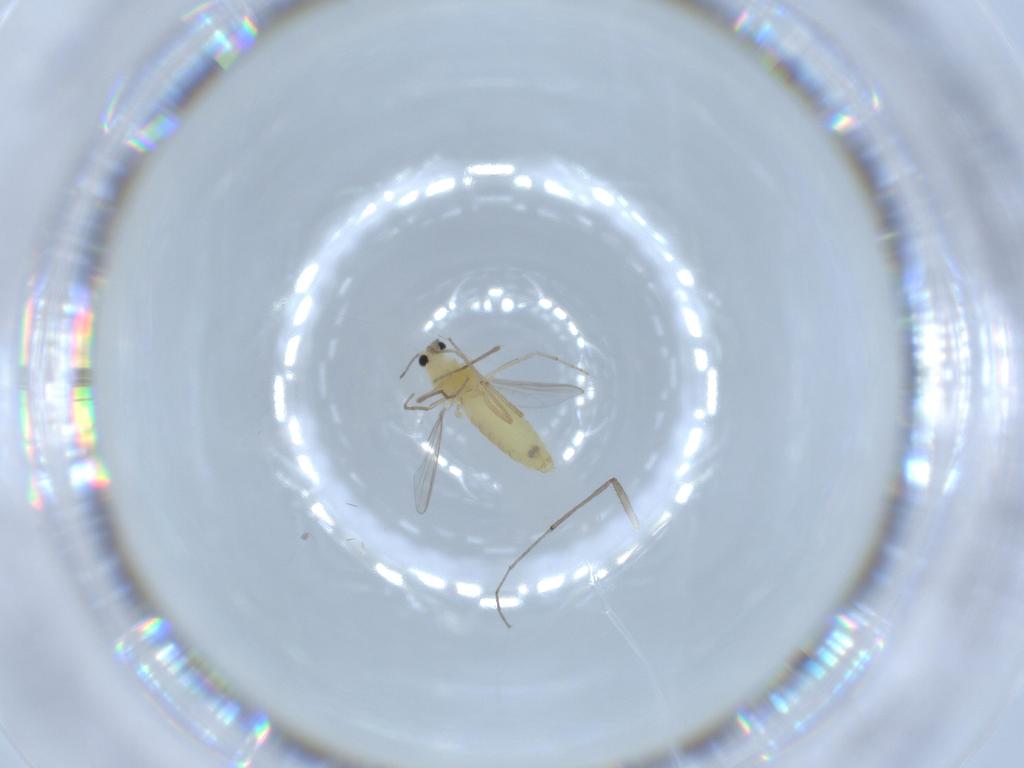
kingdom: Animalia
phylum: Arthropoda
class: Insecta
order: Diptera
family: Chironomidae
